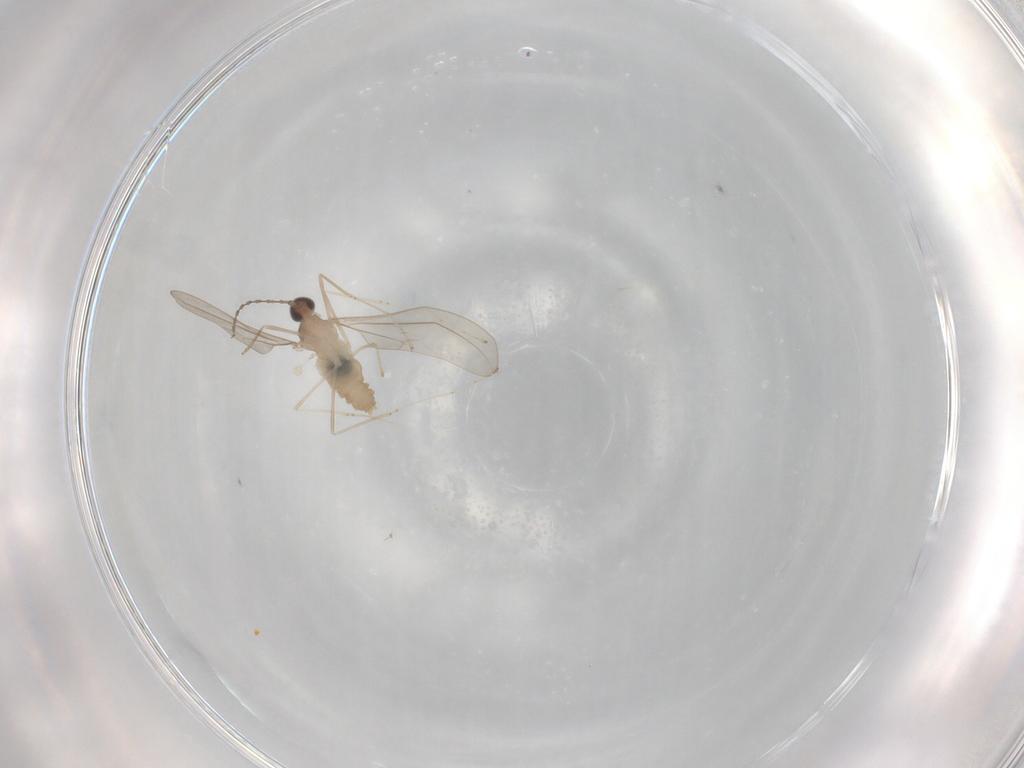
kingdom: Animalia
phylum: Arthropoda
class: Insecta
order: Diptera
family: Cecidomyiidae
